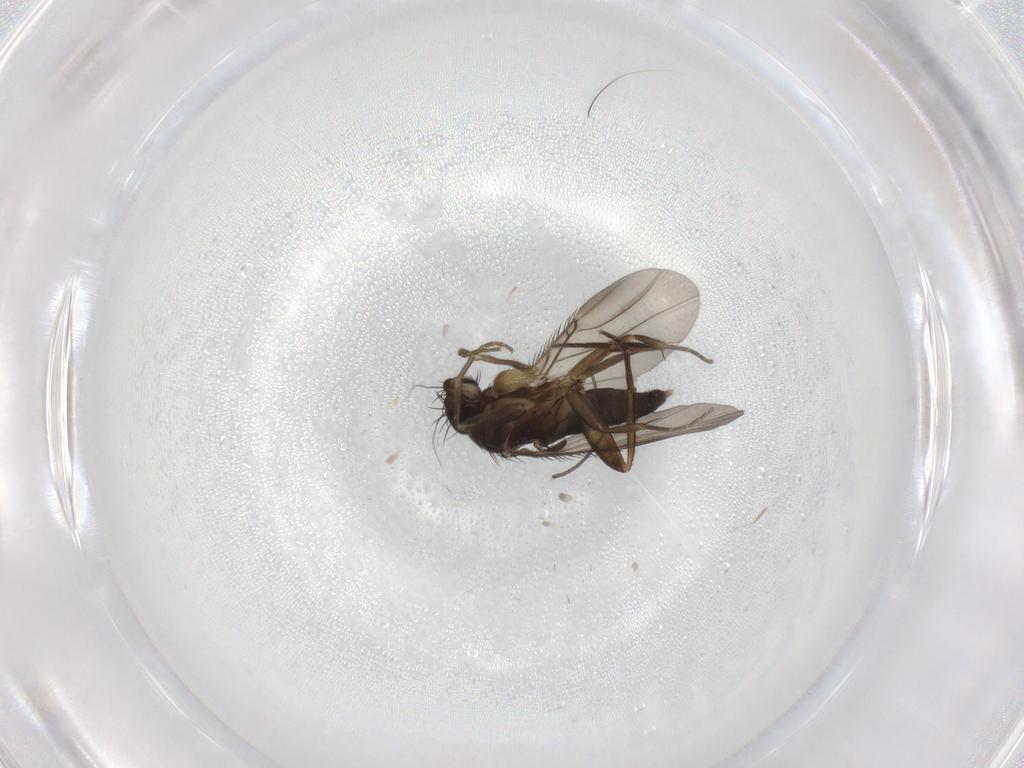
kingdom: Animalia
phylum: Arthropoda
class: Insecta
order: Diptera
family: Phoridae
